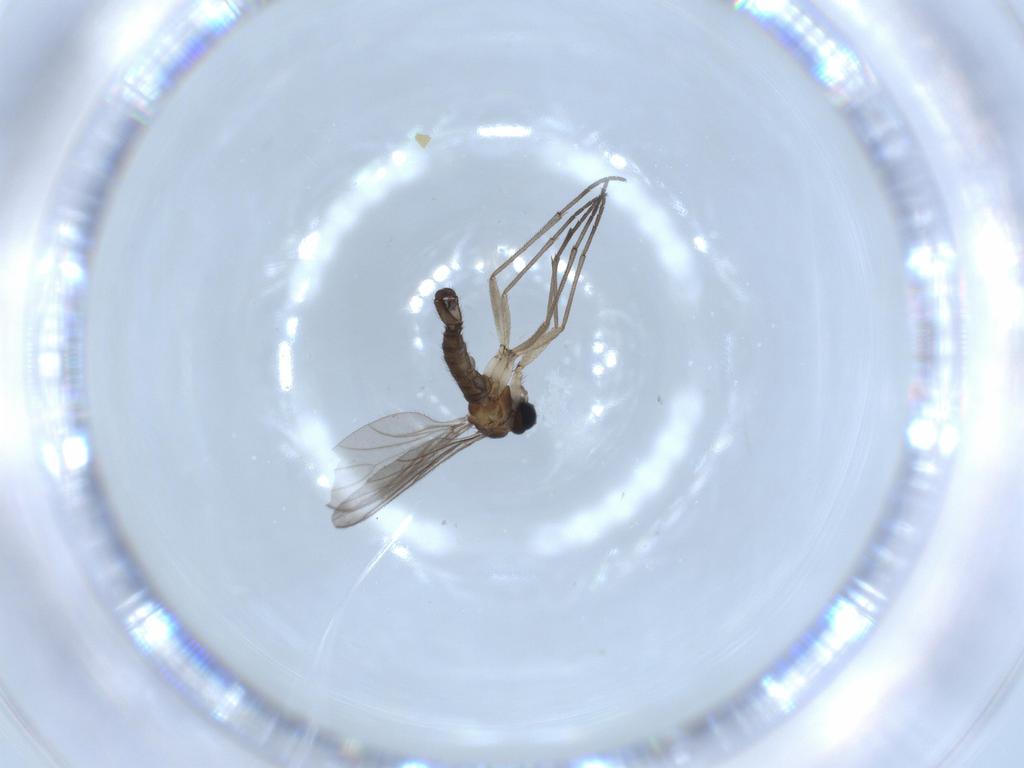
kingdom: Animalia
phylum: Arthropoda
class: Insecta
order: Diptera
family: Sciaridae
